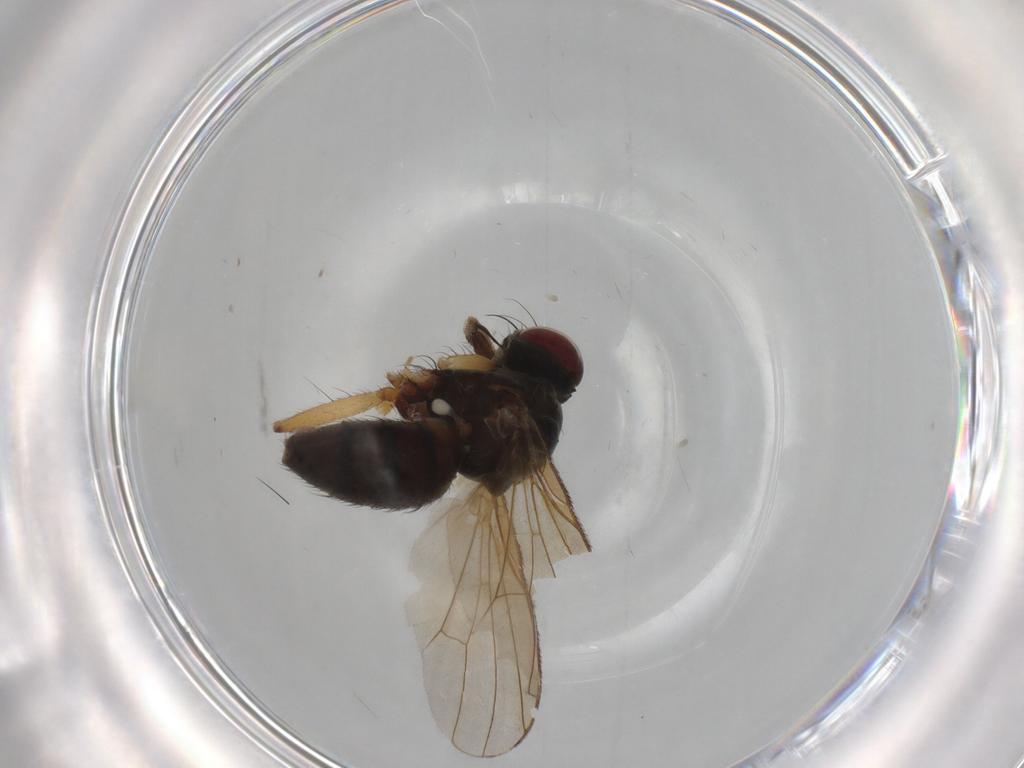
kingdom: Animalia
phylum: Arthropoda
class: Insecta
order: Diptera
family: Muscidae
